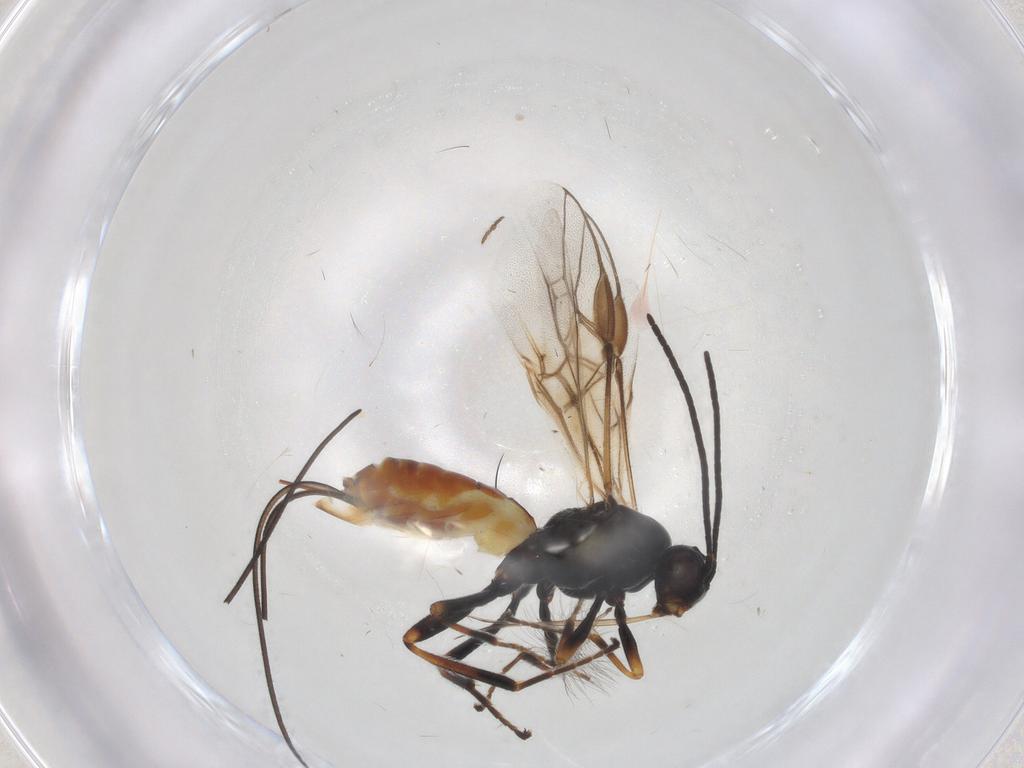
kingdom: Animalia
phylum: Arthropoda
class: Insecta
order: Hymenoptera
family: Braconidae
